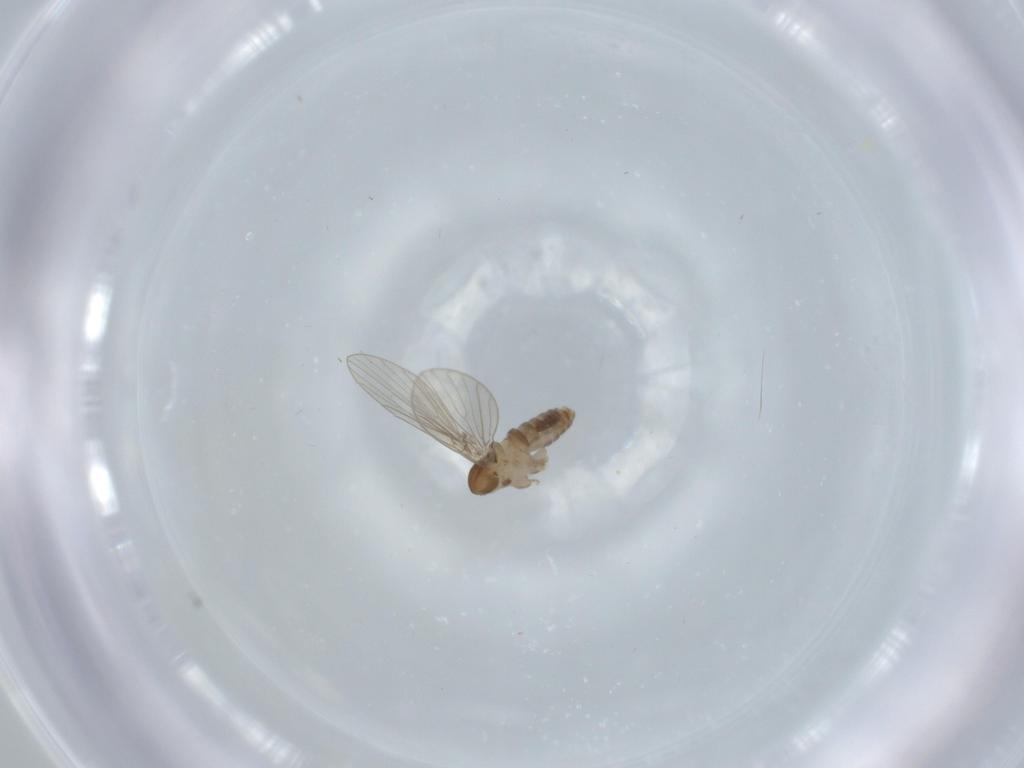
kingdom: Animalia
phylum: Arthropoda
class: Insecta
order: Diptera
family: Psychodidae
